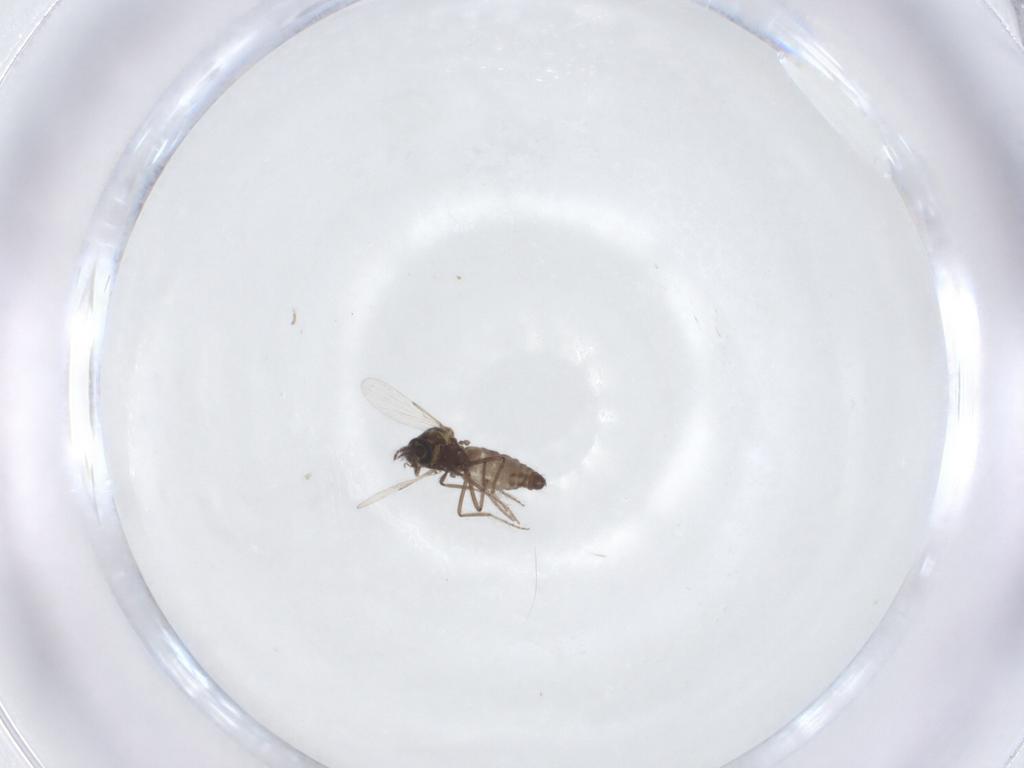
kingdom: Animalia
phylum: Arthropoda
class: Insecta
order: Diptera
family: Ceratopogonidae
